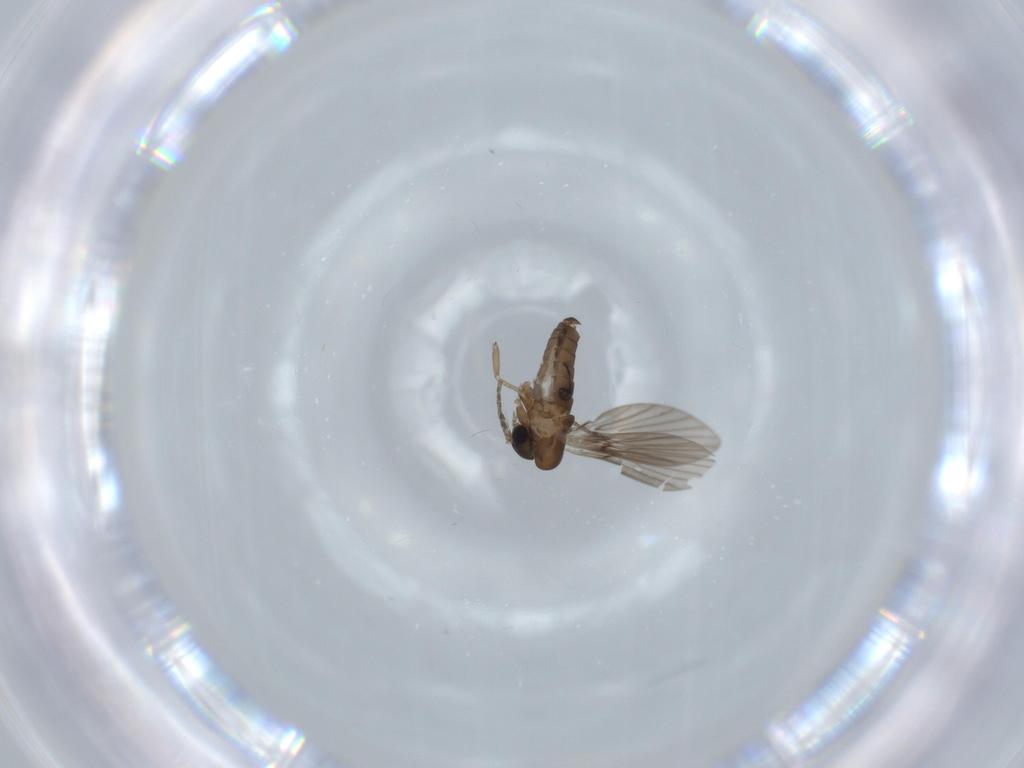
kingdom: Animalia
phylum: Arthropoda
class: Insecta
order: Diptera
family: Psychodidae
